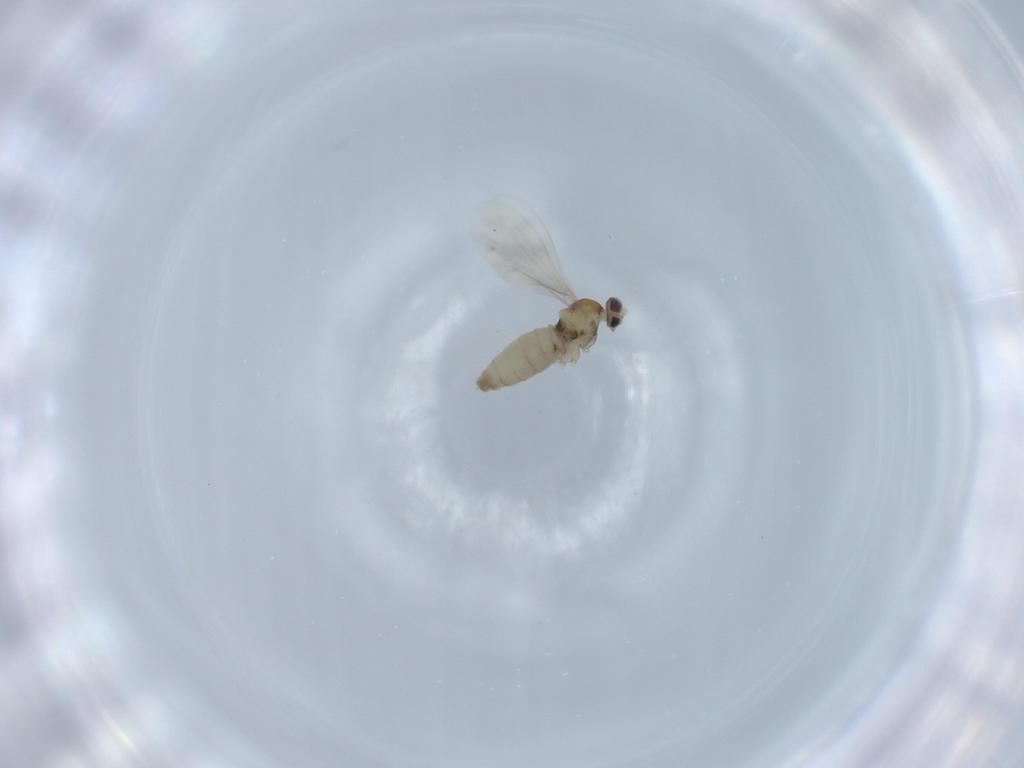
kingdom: Animalia
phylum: Arthropoda
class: Insecta
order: Diptera
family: Cecidomyiidae
